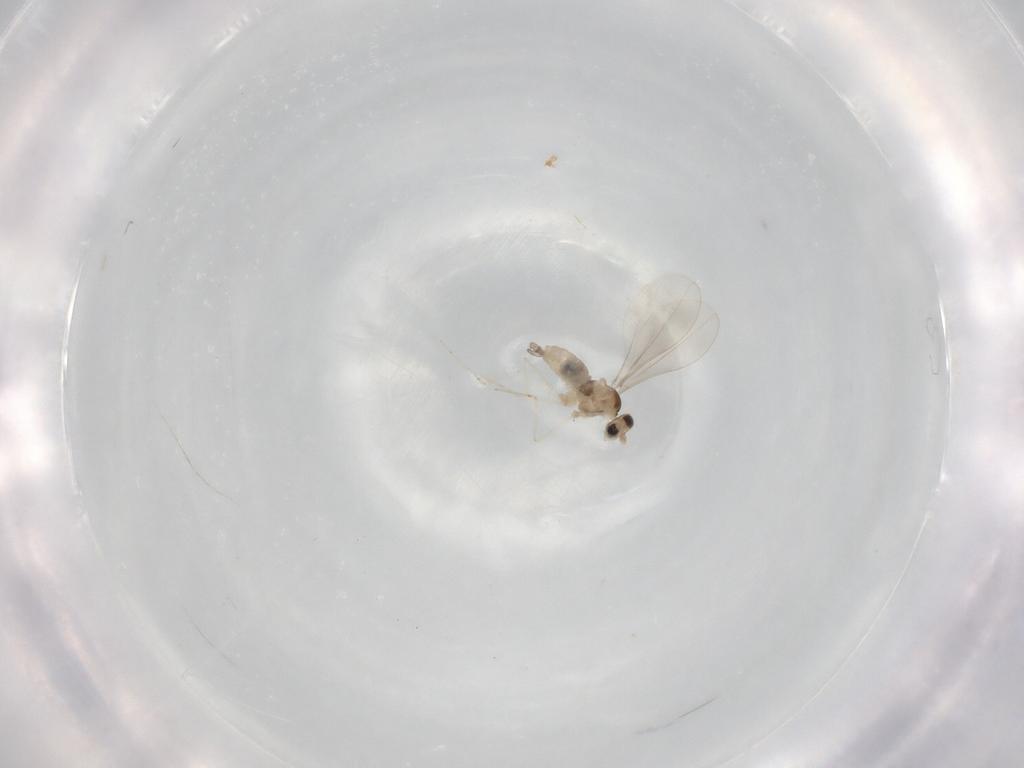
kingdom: Animalia
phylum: Arthropoda
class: Insecta
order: Diptera
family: Cecidomyiidae
